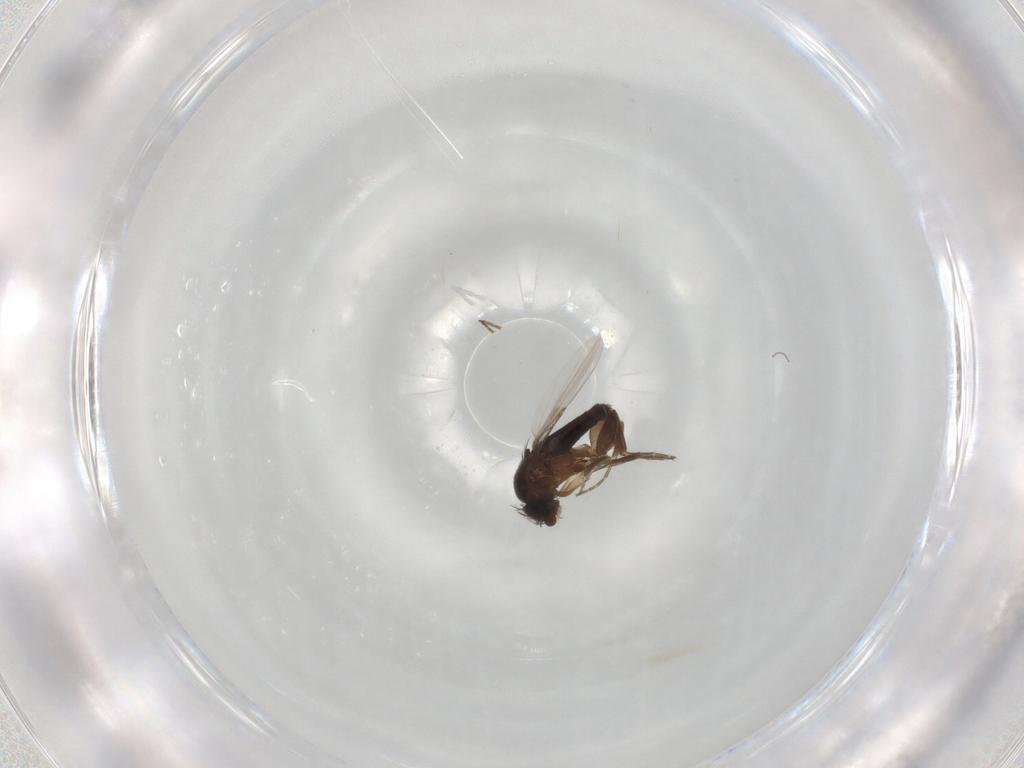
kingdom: Animalia
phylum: Arthropoda
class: Insecta
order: Diptera
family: Phoridae
